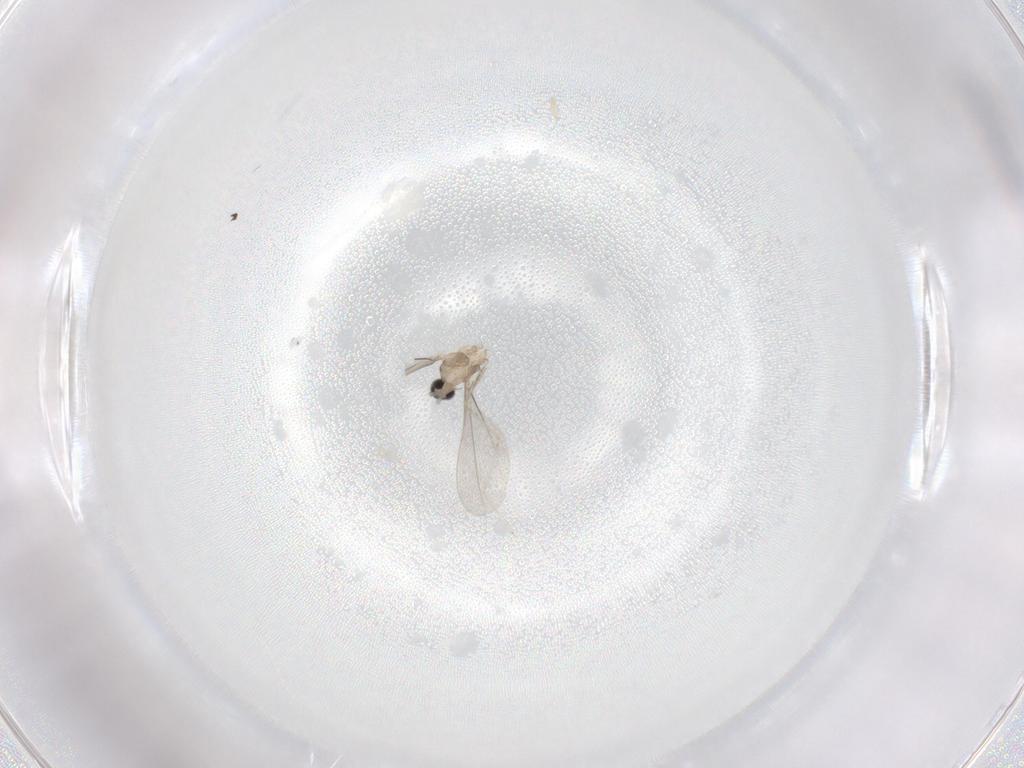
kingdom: Animalia
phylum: Arthropoda
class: Insecta
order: Diptera
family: Cecidomyiidae
